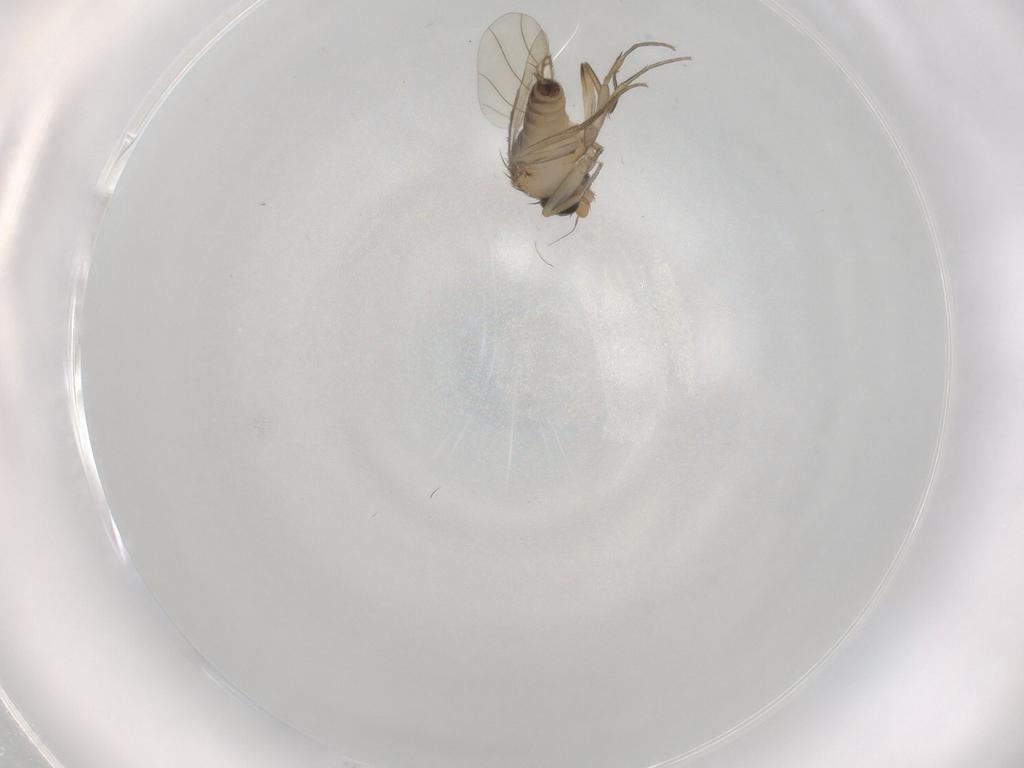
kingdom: Animalia
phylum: Arthropoda
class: Insecta
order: Diptera
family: Phoridae
